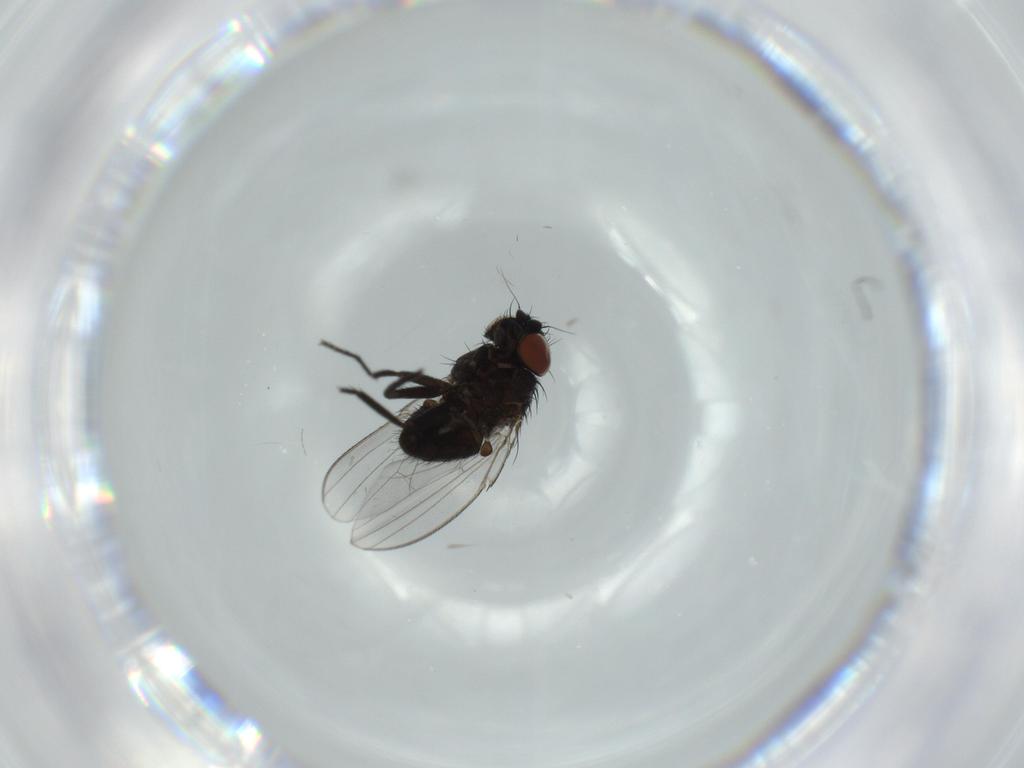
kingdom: Animalia
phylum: Arthropoda
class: Insecta
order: Diptera
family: Milichiidae
